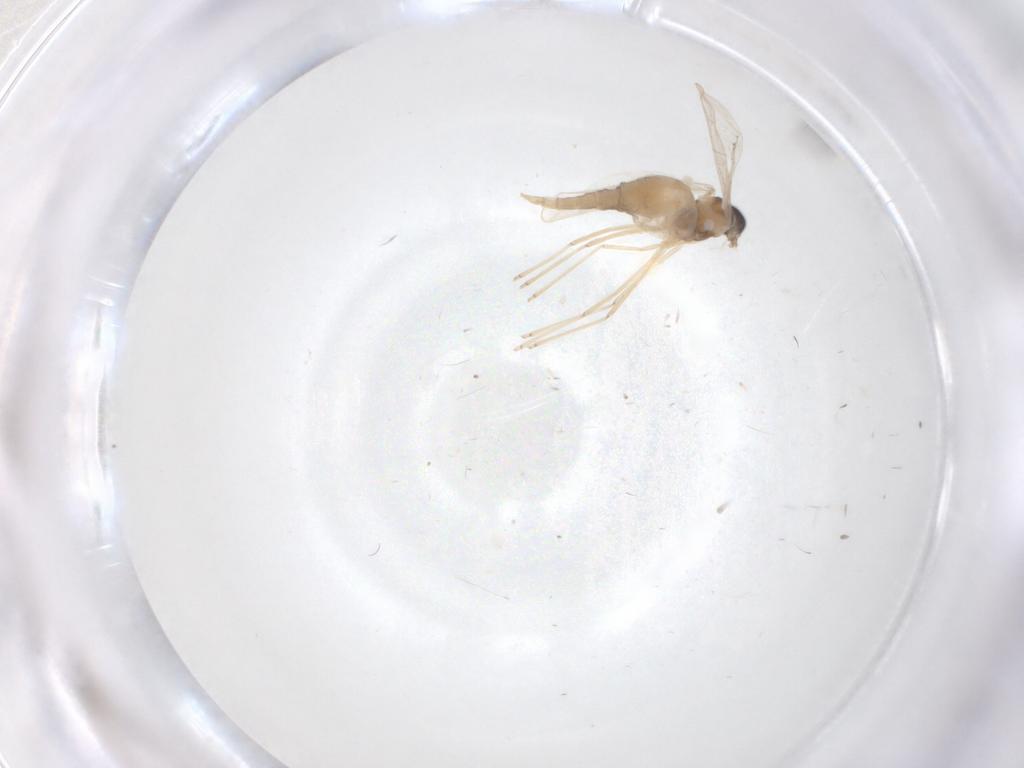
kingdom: Animalia
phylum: Arthropoda
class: Insecta
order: Diptera
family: Cecidomyiidae
